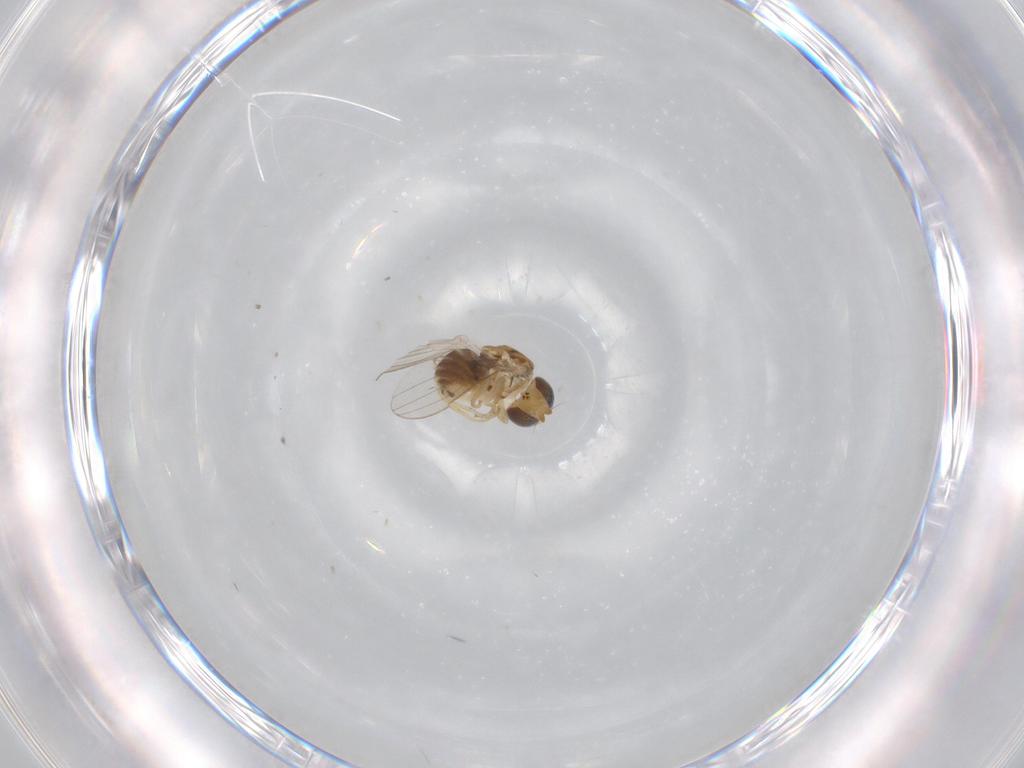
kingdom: Animalia
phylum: Arthropoda
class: Insecta
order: Diptera
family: Chyromyidae
